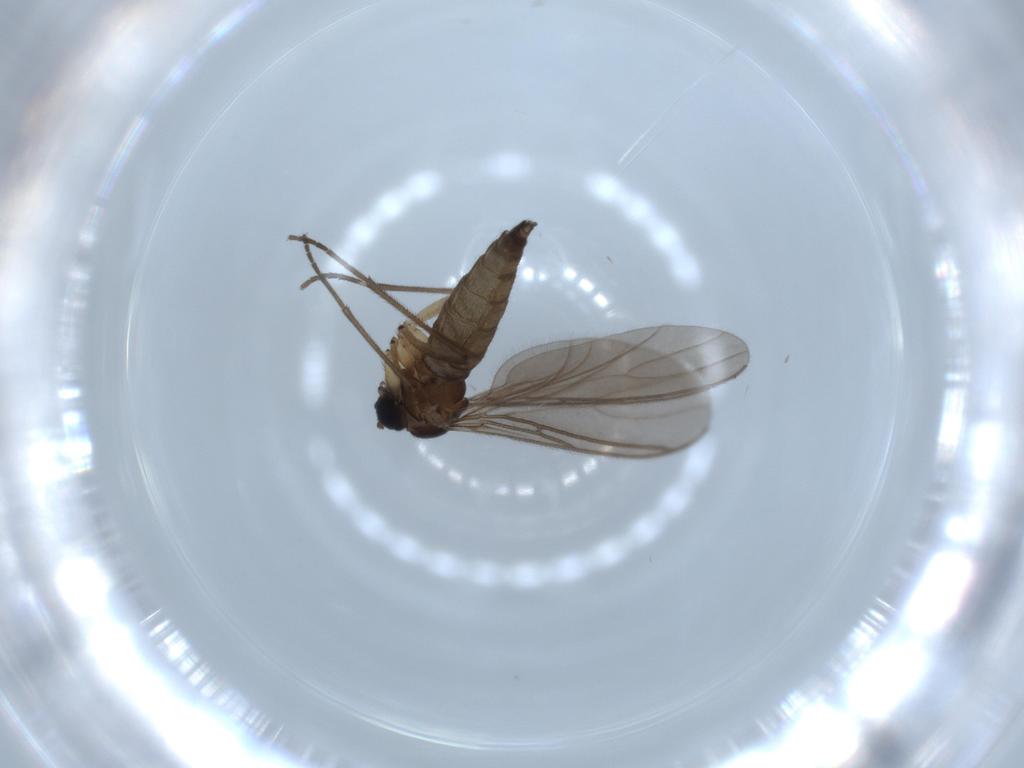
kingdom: Animalia
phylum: Arthropoda
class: Insecta
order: Diptera
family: Sciaridae
